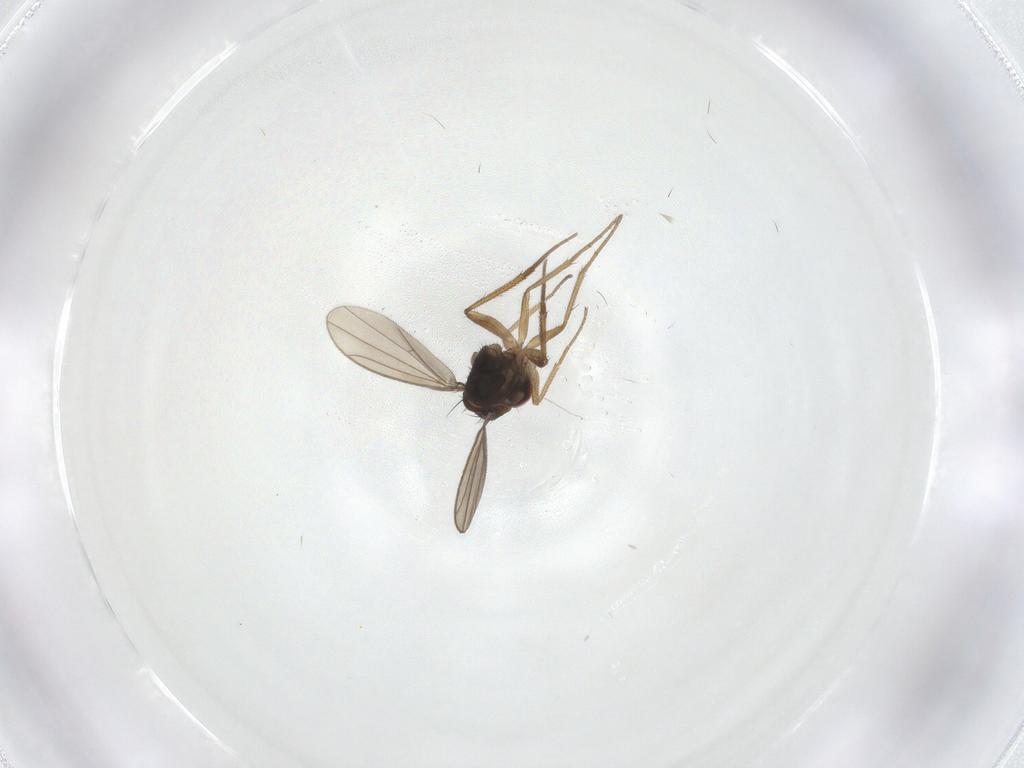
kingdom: Animalia
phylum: Arthropoda
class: Insecta
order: Diptera
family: Dolichopodidae
